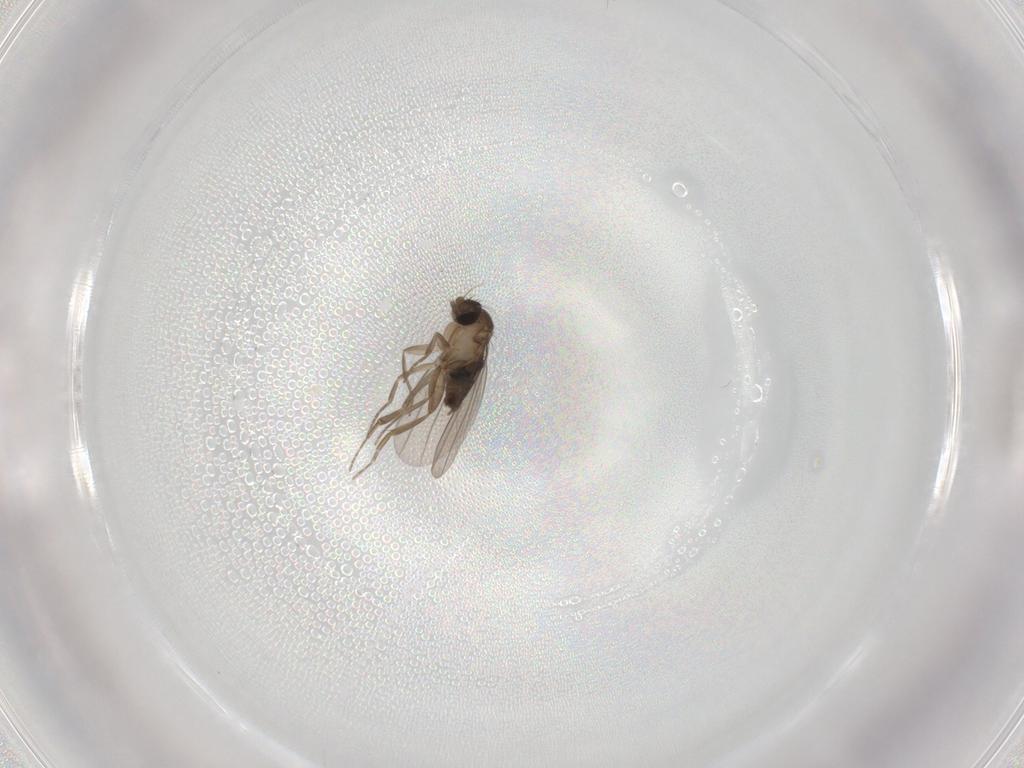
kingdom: Animalia
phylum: Arthropoda
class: Insecta
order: Diptera
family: Phoridae
